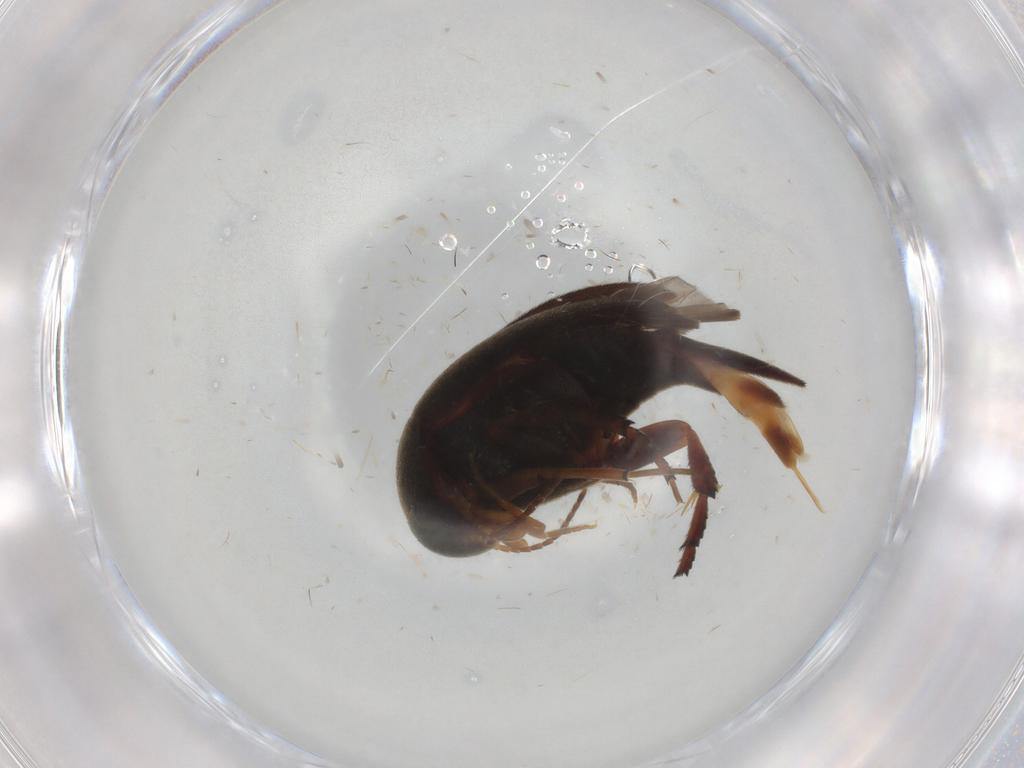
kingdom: Animalia
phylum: Arthropoda
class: Insecta
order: Coleoptera
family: Mordellidae
